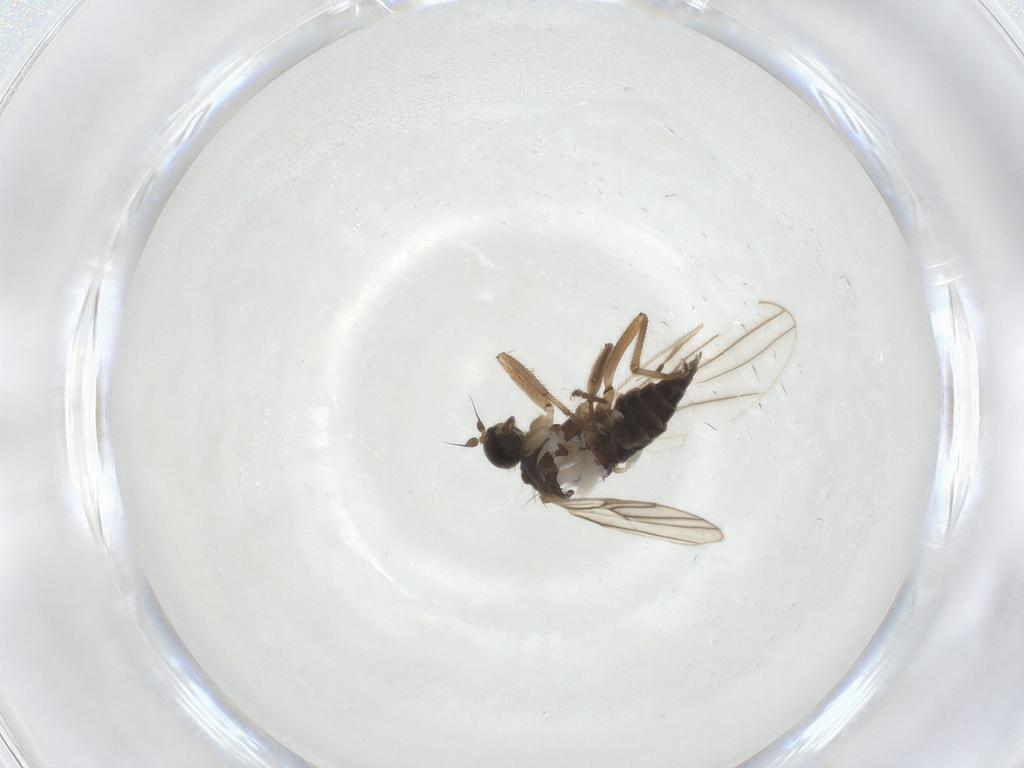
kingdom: Animalia
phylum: Arthropoda
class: Insecta
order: Diptera
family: Hybotidae
